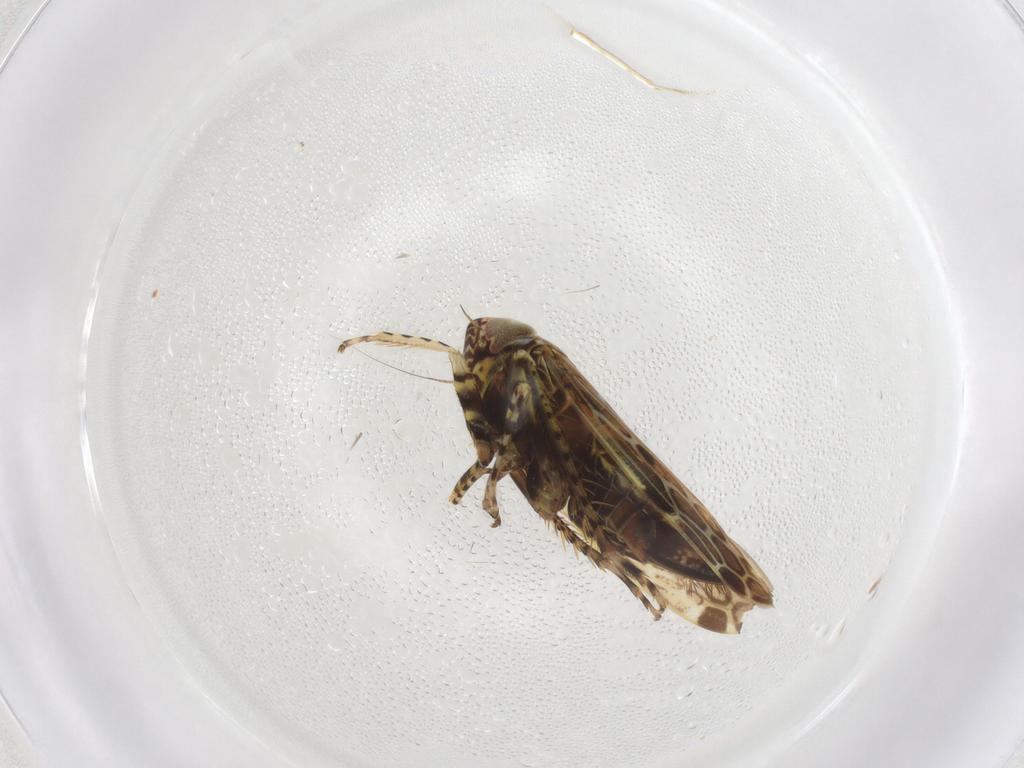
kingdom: Animalia
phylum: Arthropoda
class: Insecta
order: Hemiptera
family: Cicadellidae
